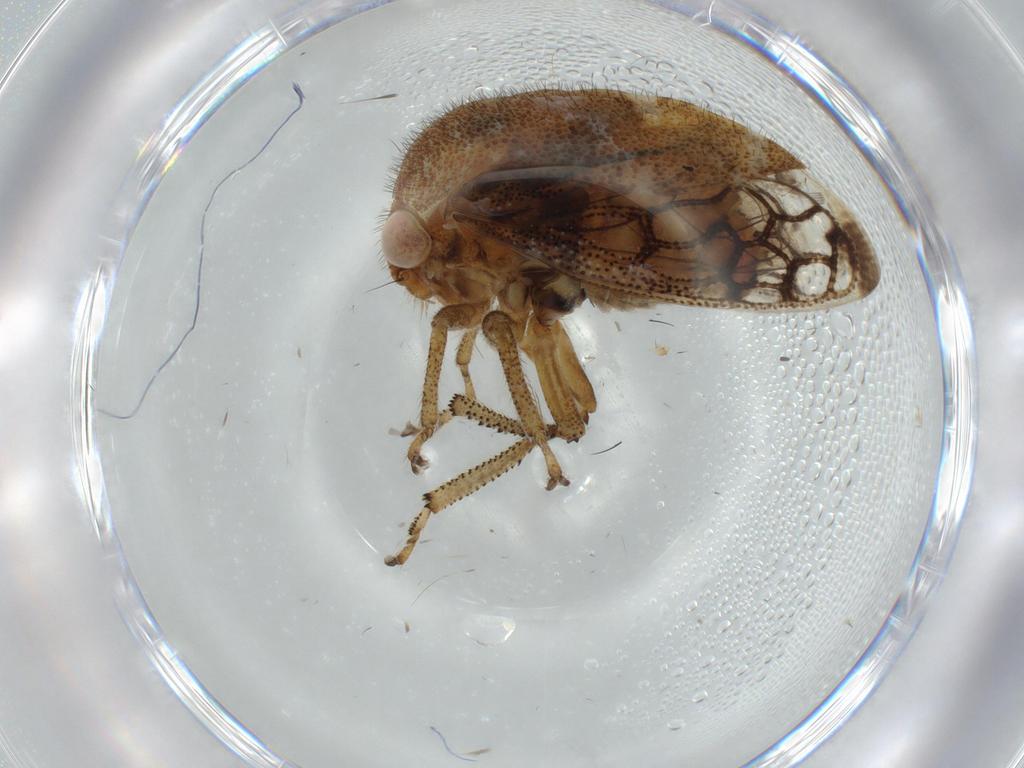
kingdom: Animalia
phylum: Arthropoda
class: Insecta
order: Hemiptera
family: Membracidae
